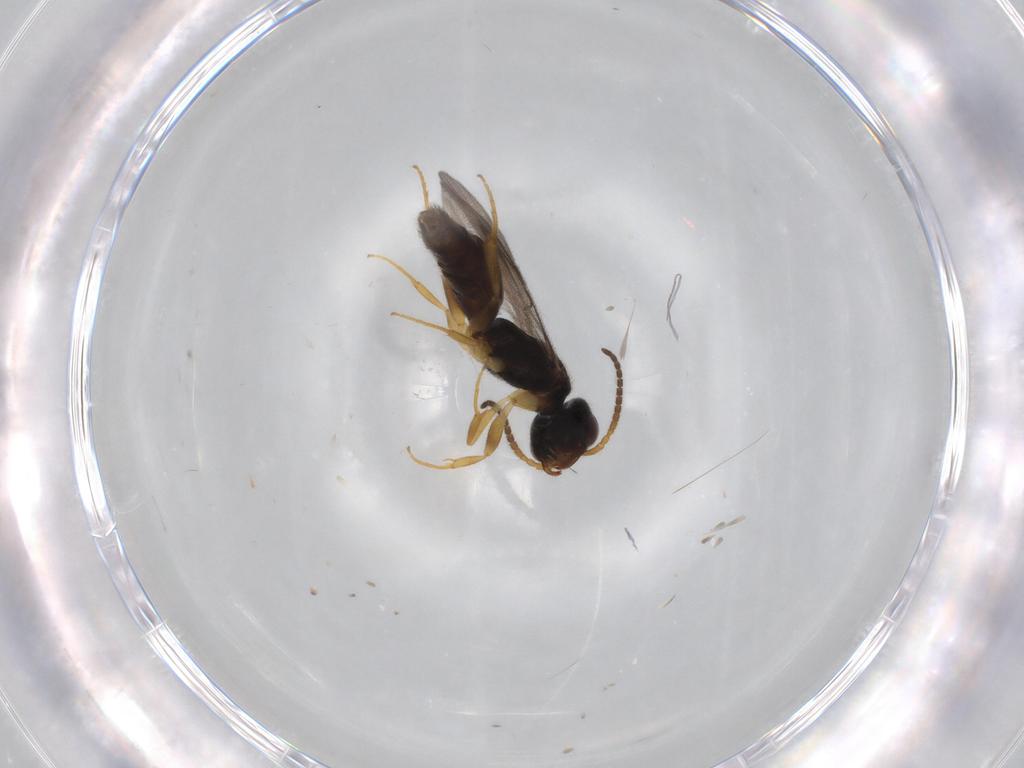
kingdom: Animalia
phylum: Arthropoda
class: Insecta
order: Hymenoptera
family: Bethylidae
